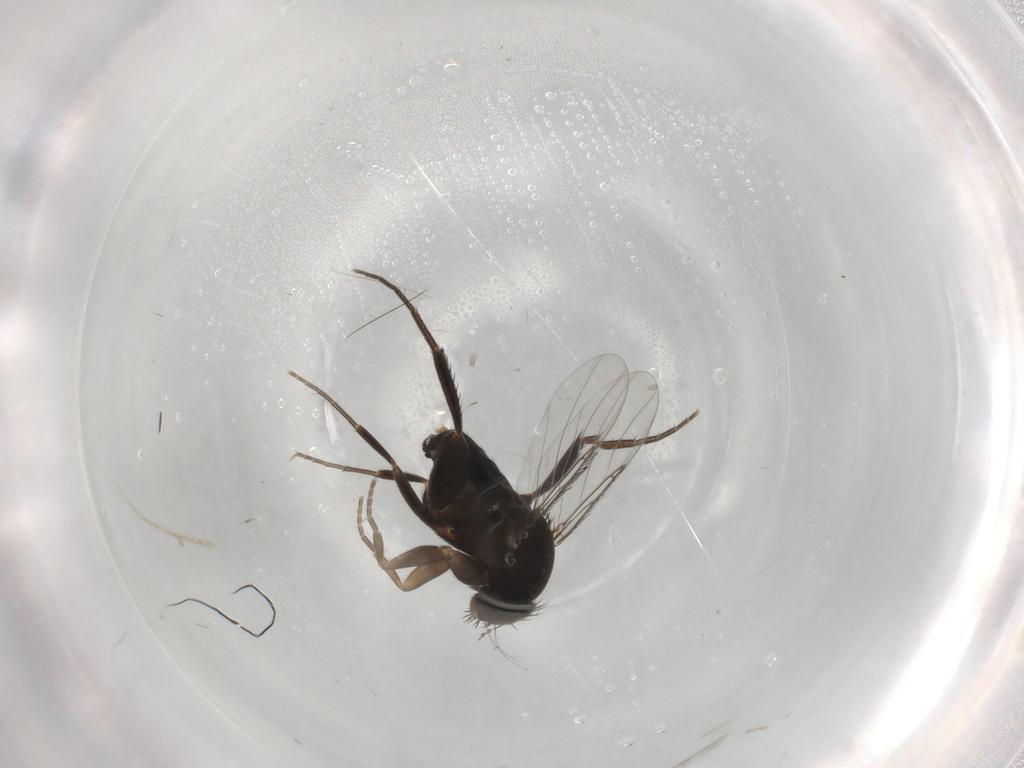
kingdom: Animalia
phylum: Arthropoda
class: Insecta
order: Diptera
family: Phoridae
